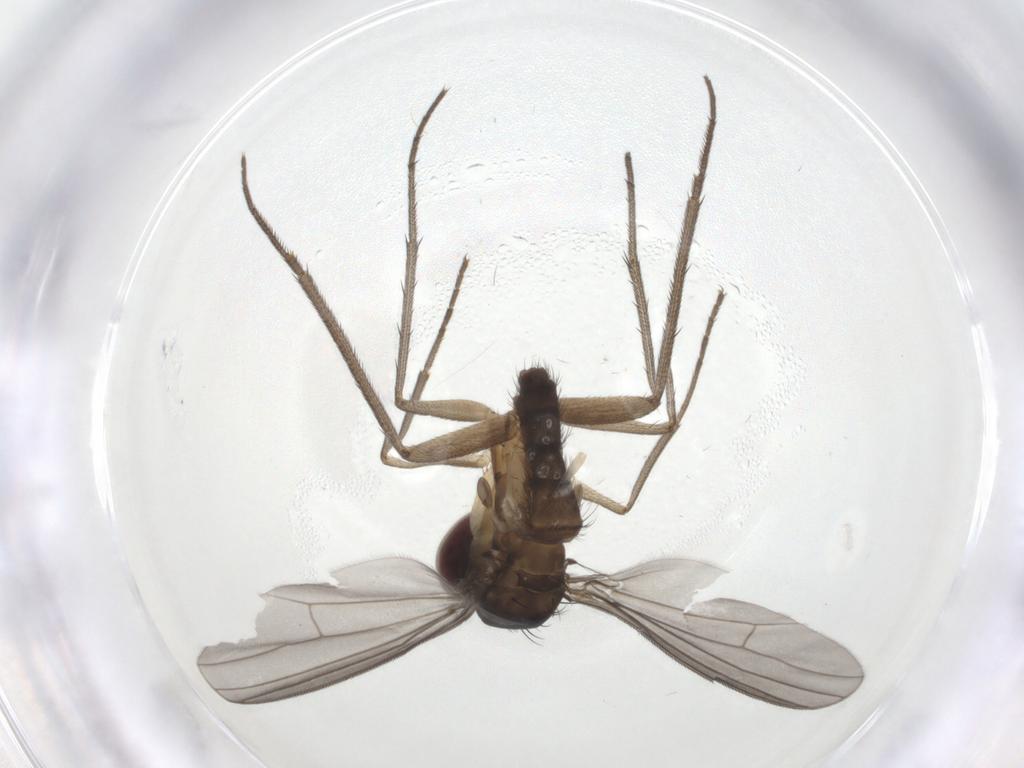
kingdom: Animalia
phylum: Arthropoda
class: Insecta
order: Diptera
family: Dolichopodidae
